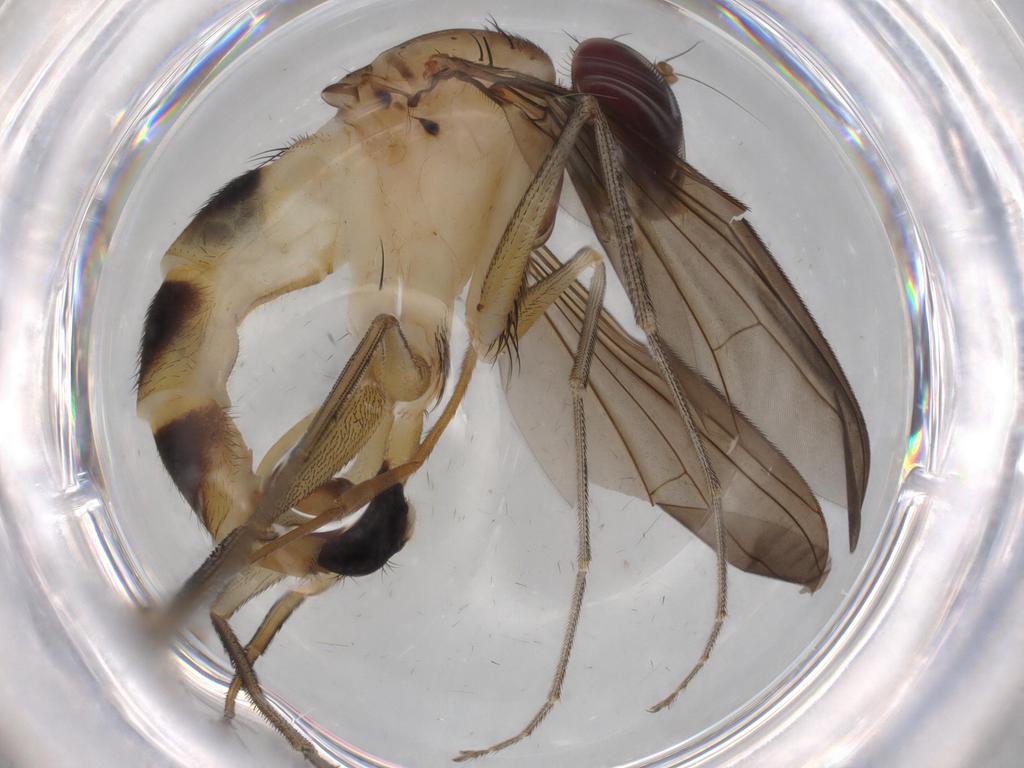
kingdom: Animalia
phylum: Arthropoda
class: Insecta
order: Diptera
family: Dolichopodidae
